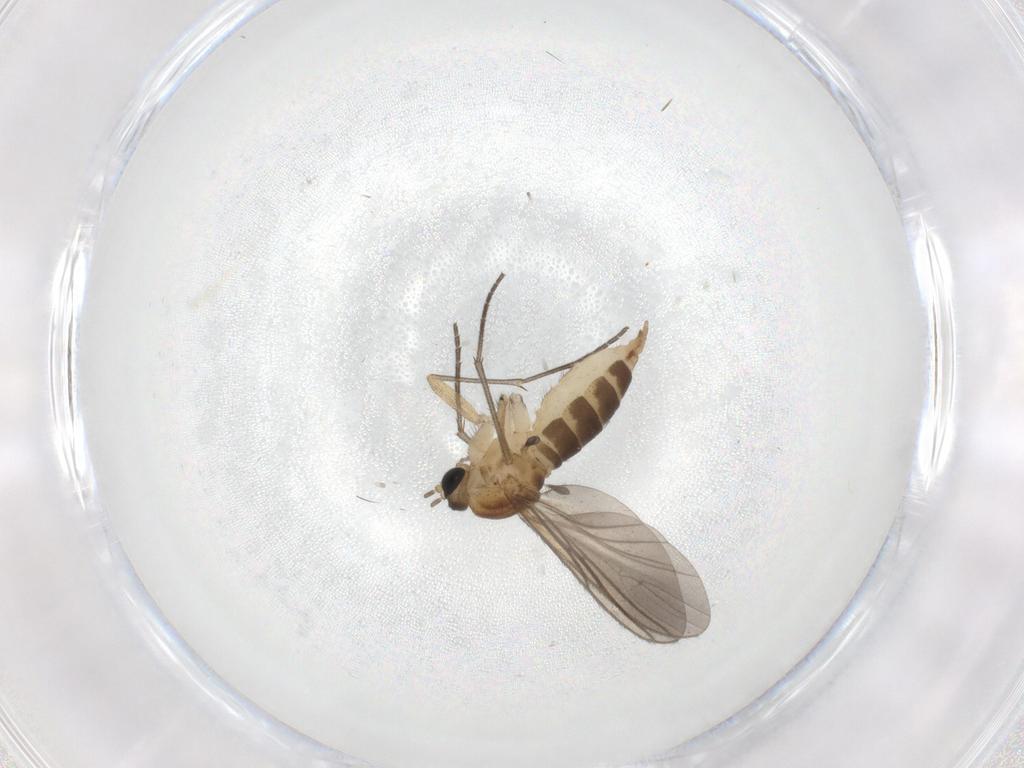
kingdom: Animalia
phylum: Arthropoda
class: Insecta
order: Diptera
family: Sciaridae
